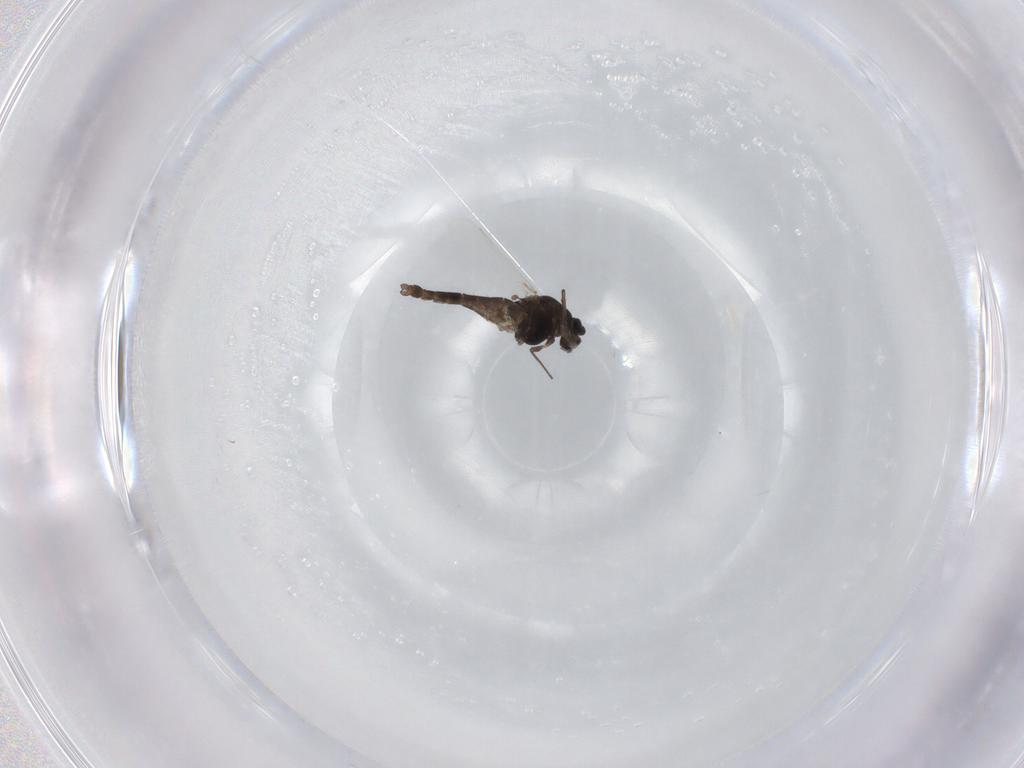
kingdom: Animalia
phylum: Arthropoda
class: Insecta
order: Diptera
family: Chironomidae
